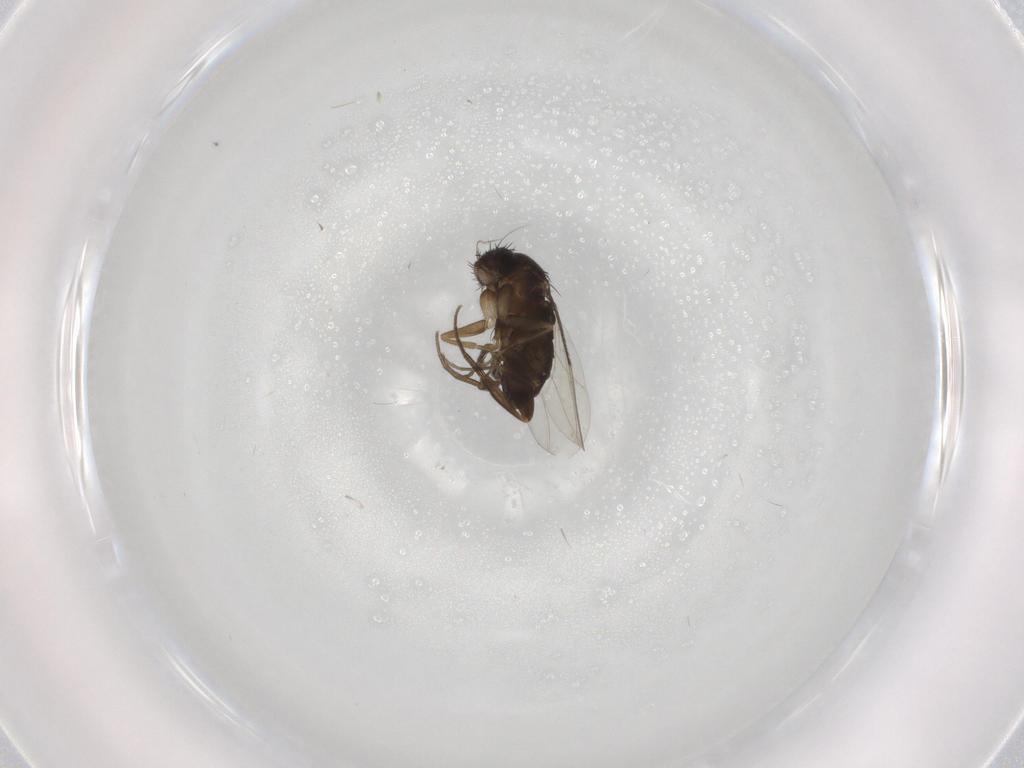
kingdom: Animalia
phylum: Arthropoda
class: Insecta
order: Diptera
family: Phoridae
